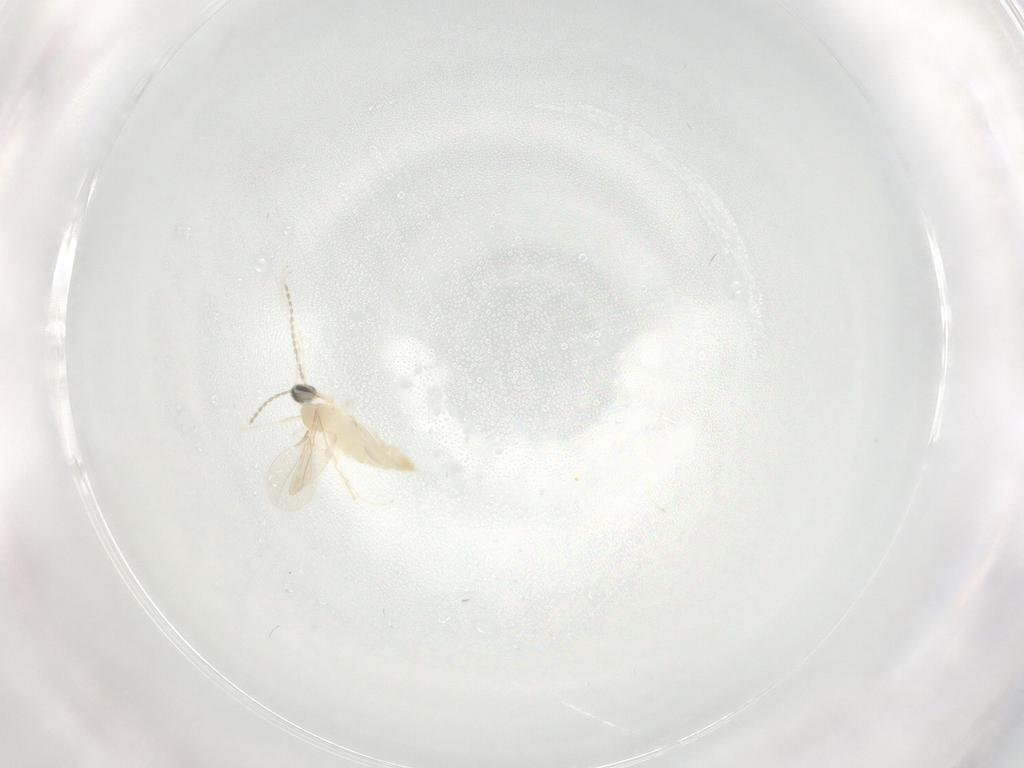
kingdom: Animalia
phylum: Arthropoda
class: Insecta
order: Diptera
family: Cecidomyiidae
